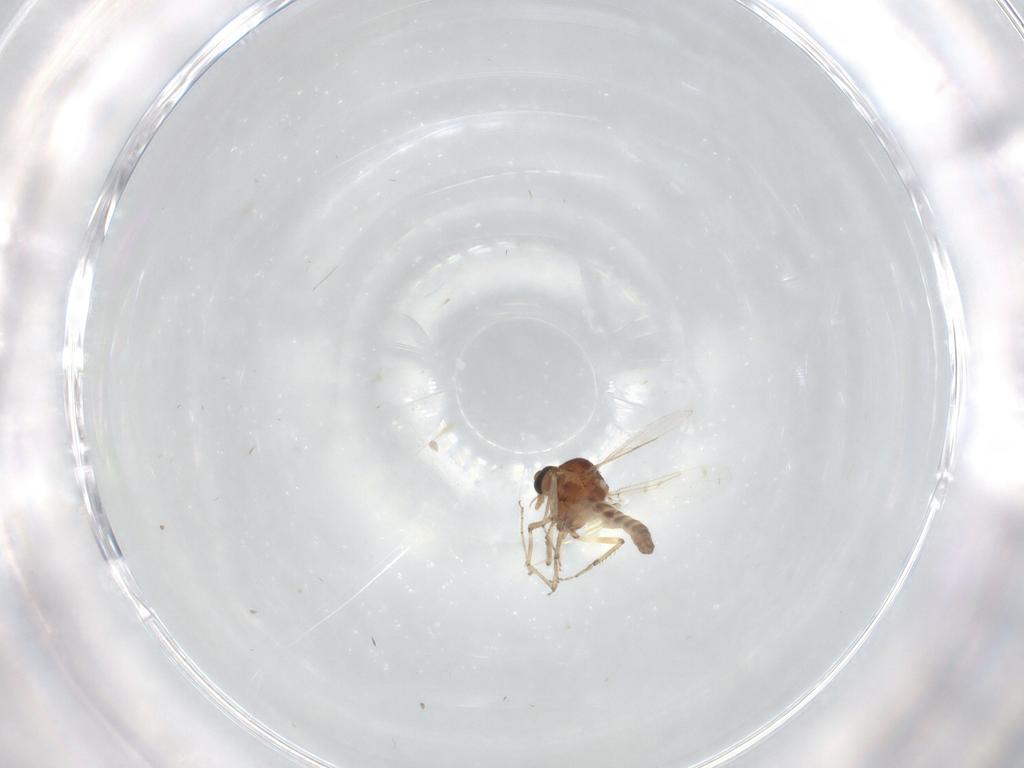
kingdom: Animalia
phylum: Arthropoda
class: Insecta
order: Diptera
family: Ceratopogonidae
